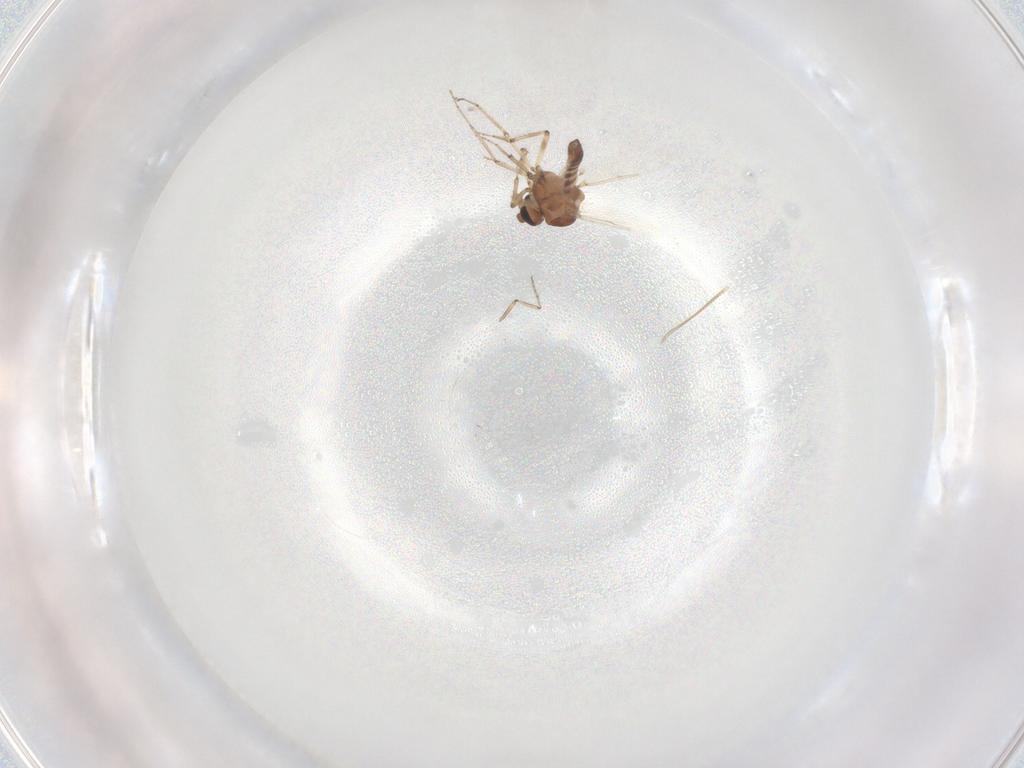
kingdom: Animalia
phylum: Arthropoda
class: Insecta
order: Diptera
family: Ceratopogonidae
